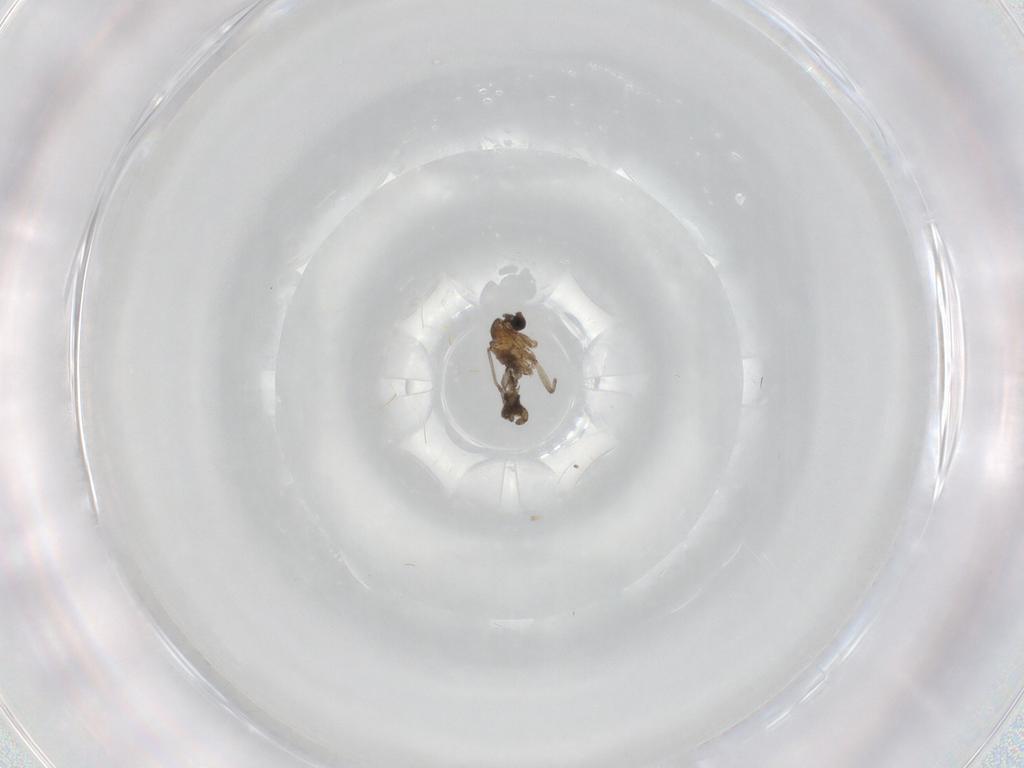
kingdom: Animalia
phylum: Arthropoda
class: Insecta
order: Diptera
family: Sciaridae
